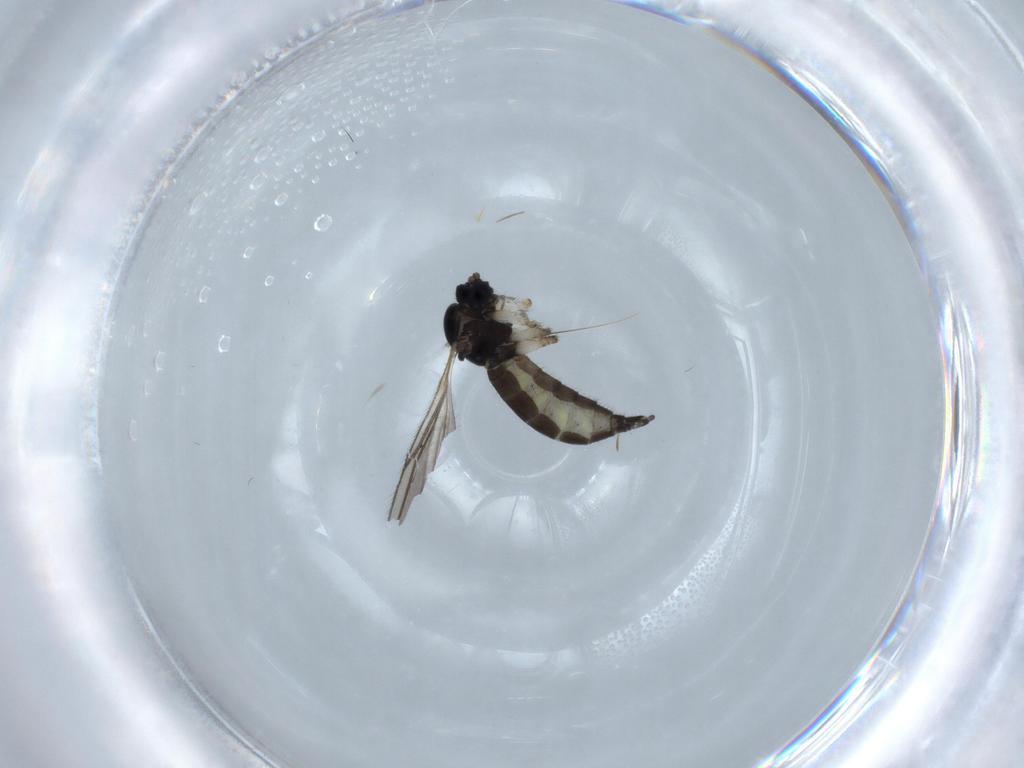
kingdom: Animalia
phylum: Arthropoda
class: Insecta
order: Diptera
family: Sciaridae
